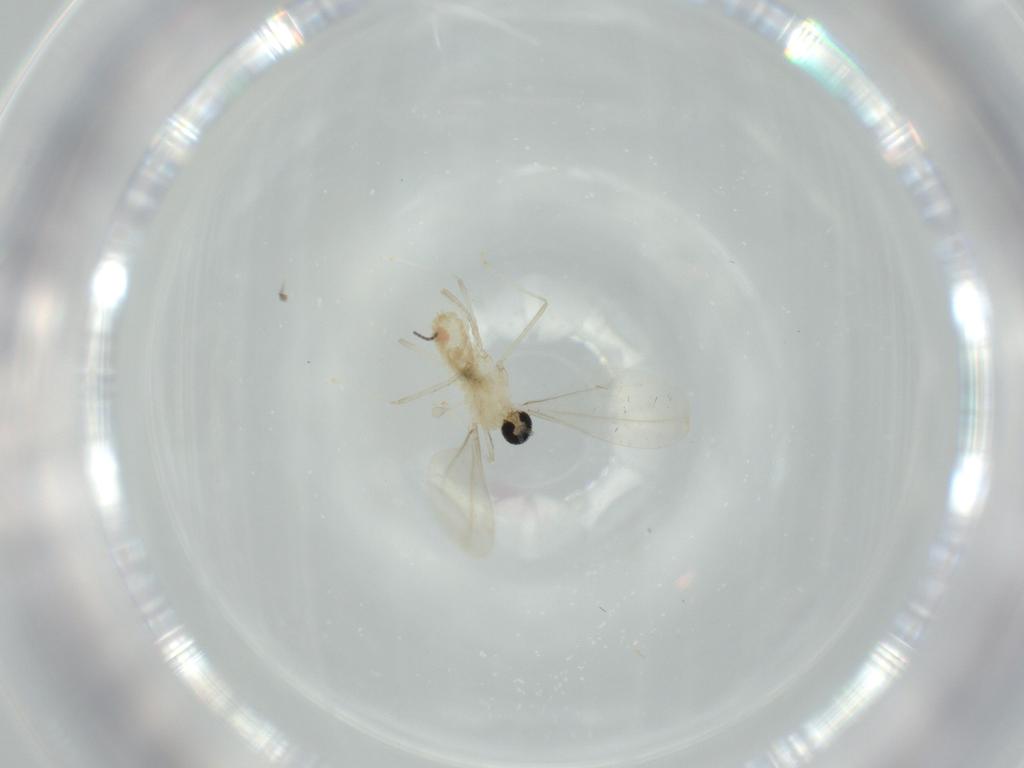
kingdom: Animalia
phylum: Arthropoda
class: Insecta
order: Diptera
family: Cecidomyiidae
